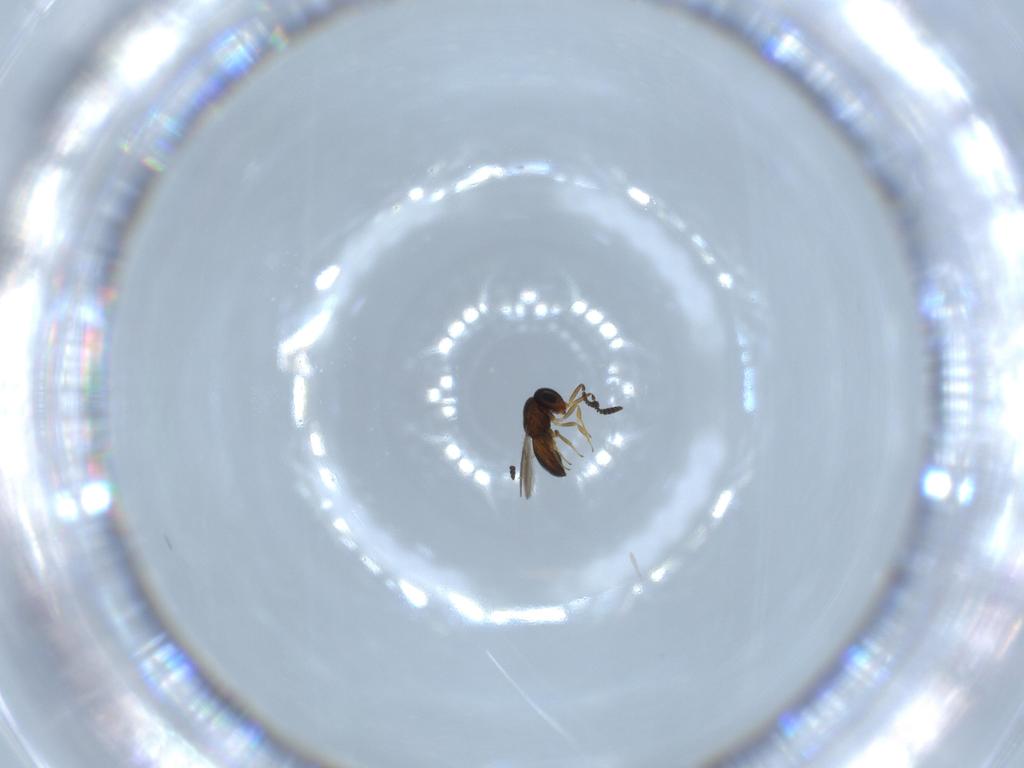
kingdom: Animalia
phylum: Arthropoda
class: Insecta
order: Hymenoptera
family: Scelionidae
